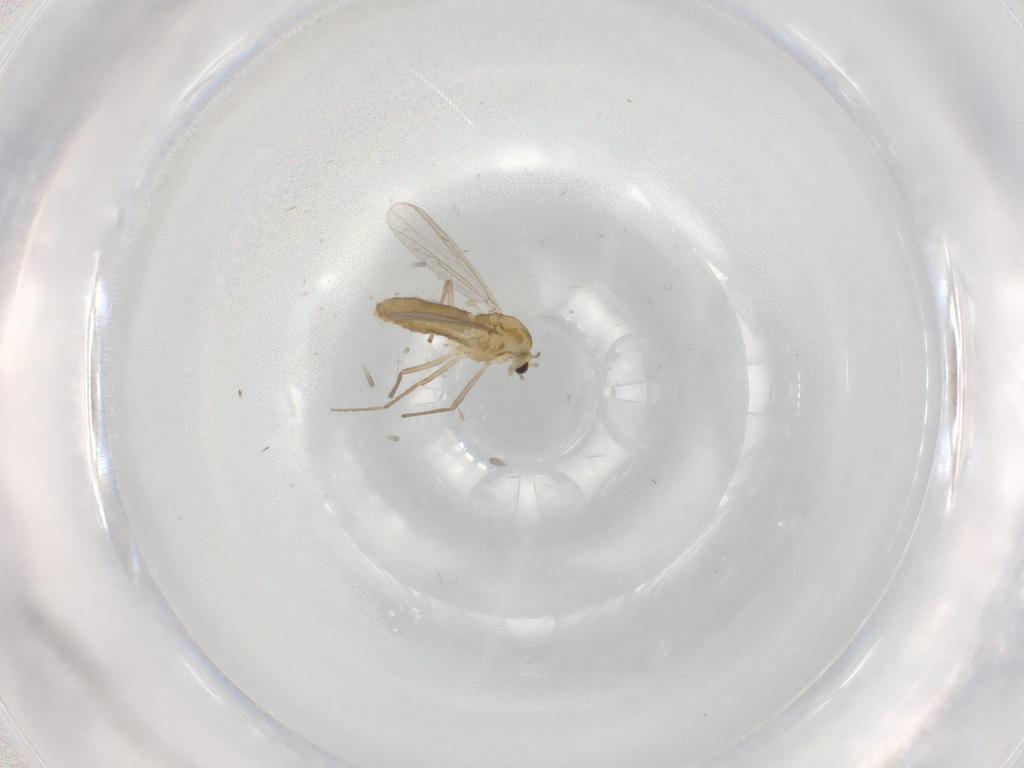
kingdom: Animalia
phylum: Arthropoda
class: Insecta
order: Diptera
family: Chironomidae
